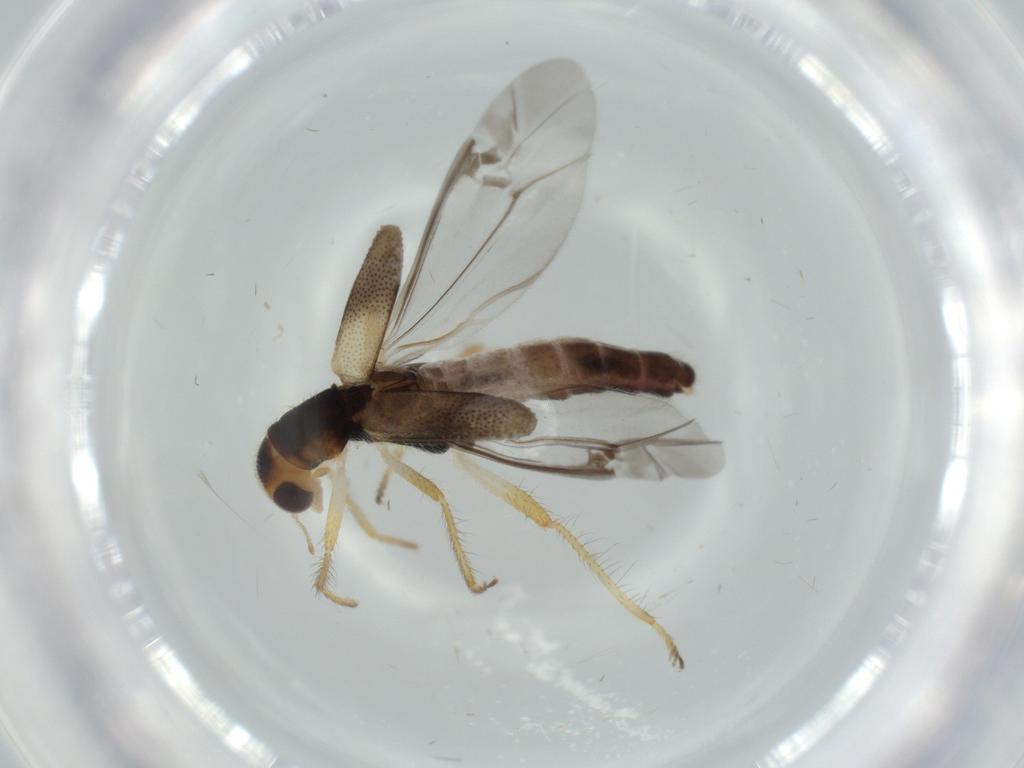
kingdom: Animalia
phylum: Arthropoda
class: Insecta
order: Coleoptera
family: Cleridae
